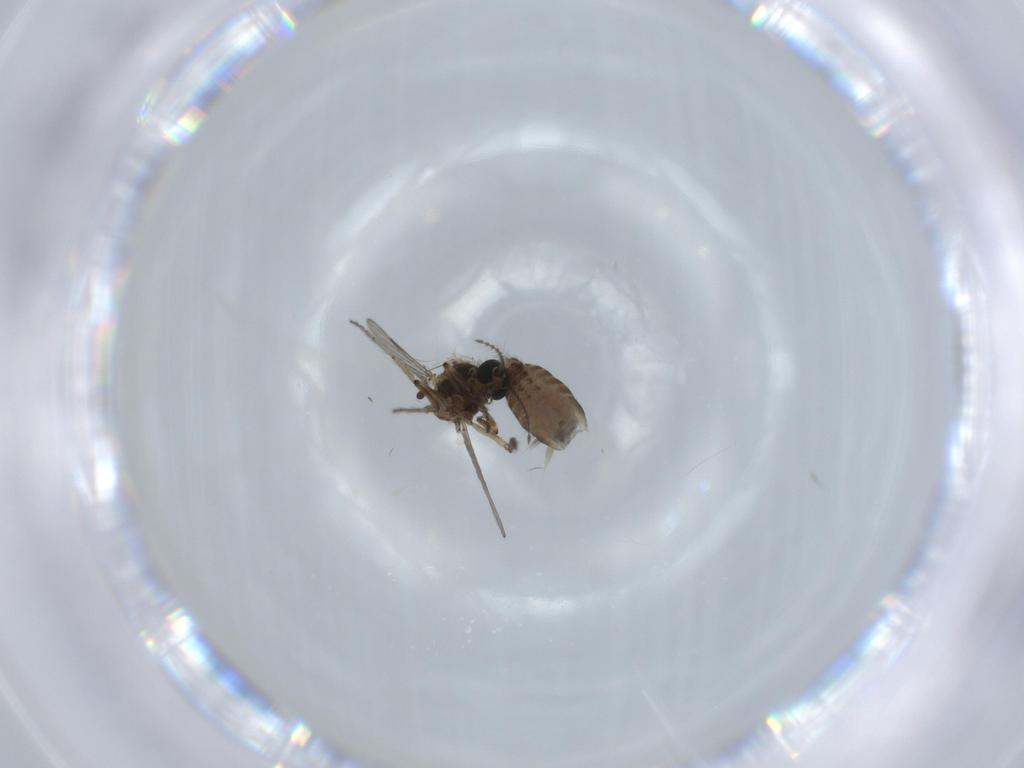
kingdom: Animalia
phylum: Arthropoda
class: Insecta
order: Diptera
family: Ceratopogonidae
